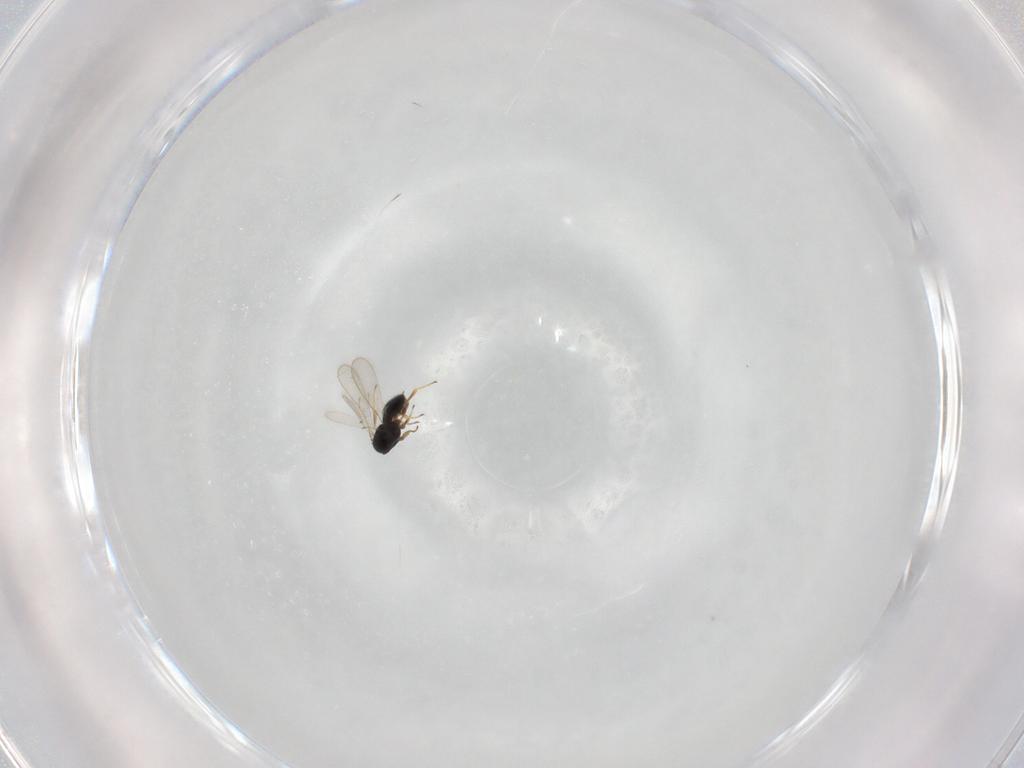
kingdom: Animalia
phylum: Arthropoda
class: Insecta
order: Hymenoptera
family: Scelionidae
